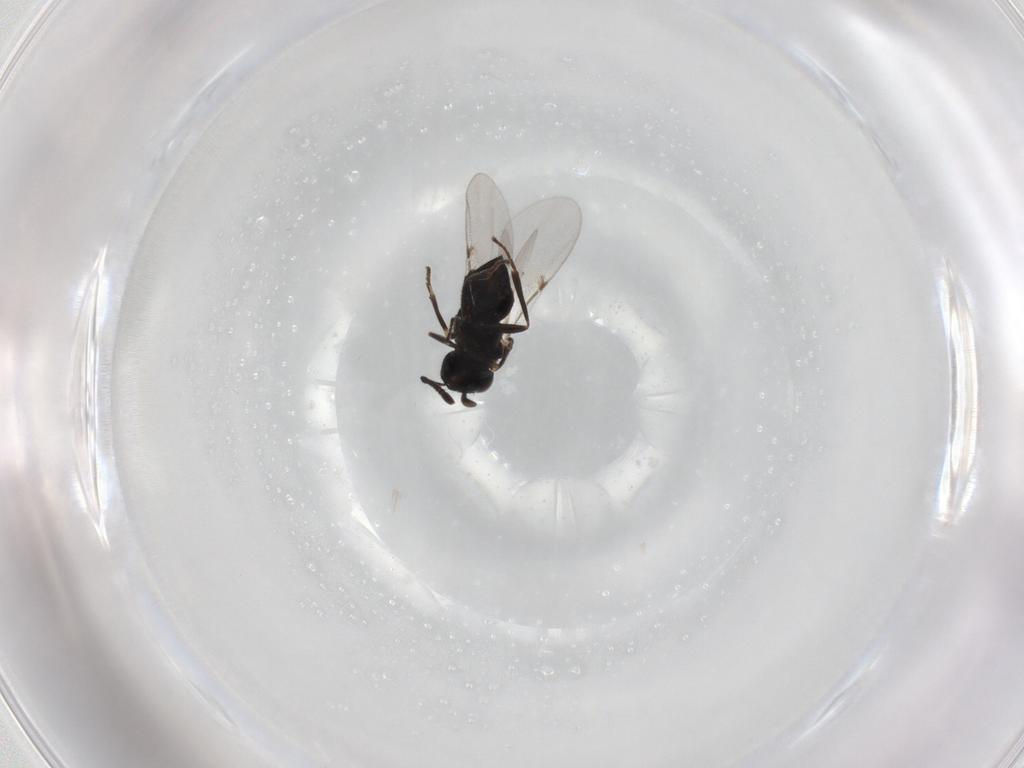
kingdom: Animalia
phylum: Arthropoda
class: Insecta
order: Hymenoptera
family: Encyrtidae
